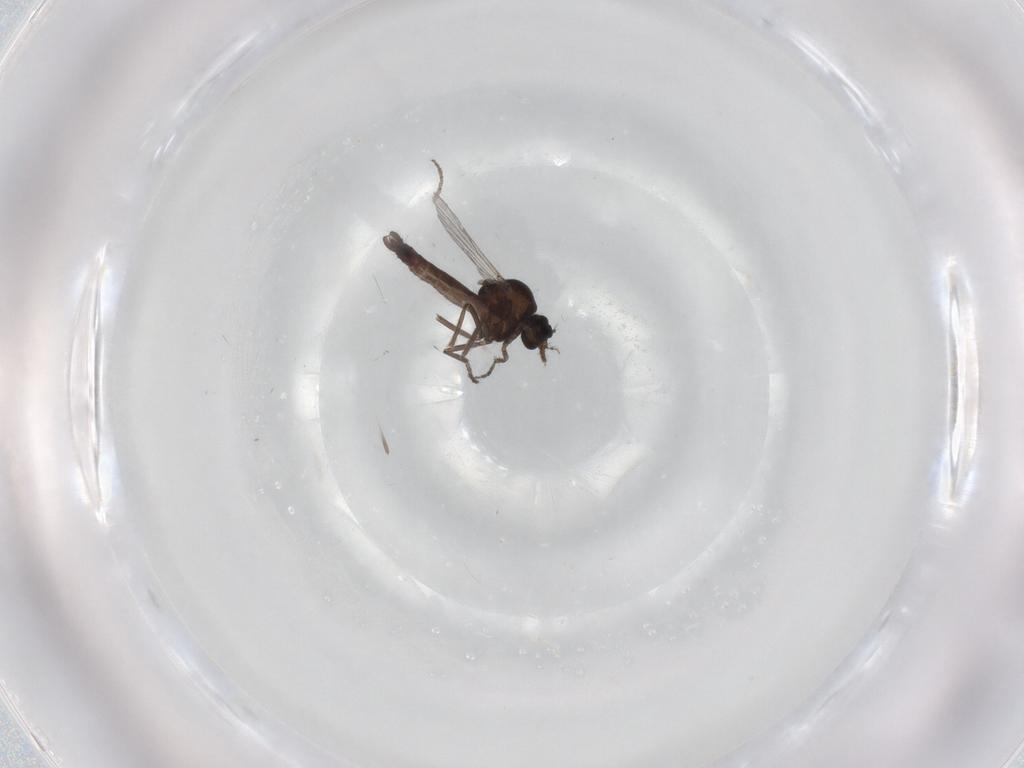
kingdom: Animalia
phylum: Arthropoda
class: Insecta
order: Diptera
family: Ceratopogonidae
